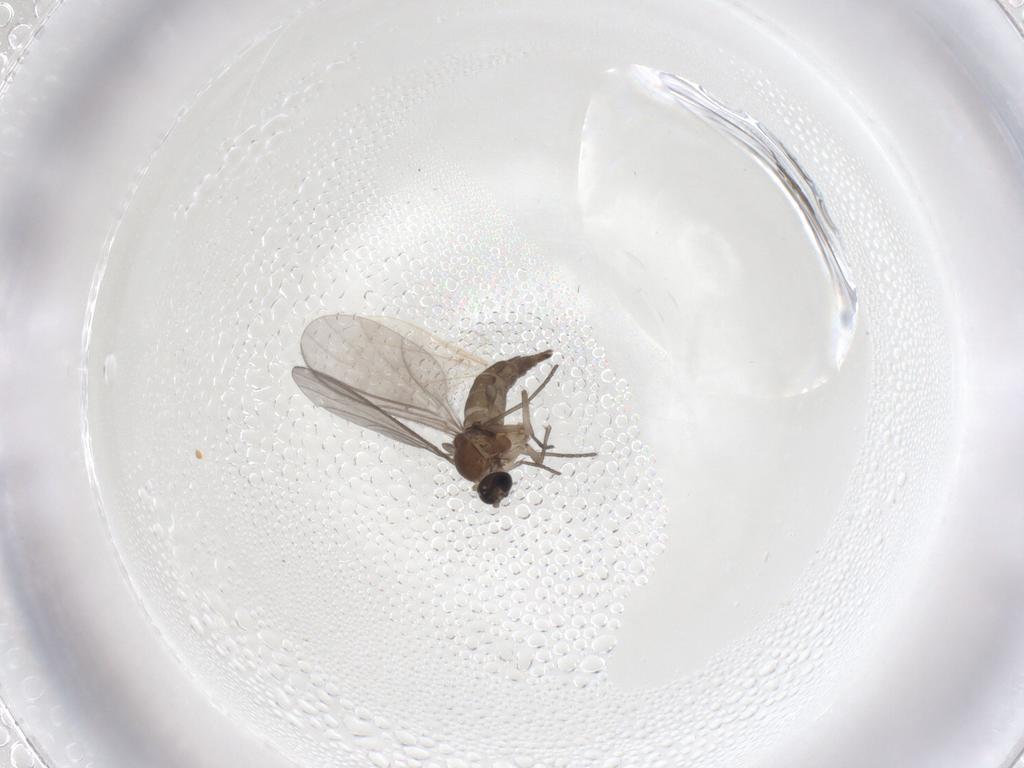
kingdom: Animalia
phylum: Arthropoda
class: Insecta
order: Diptera
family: Sciaridae
